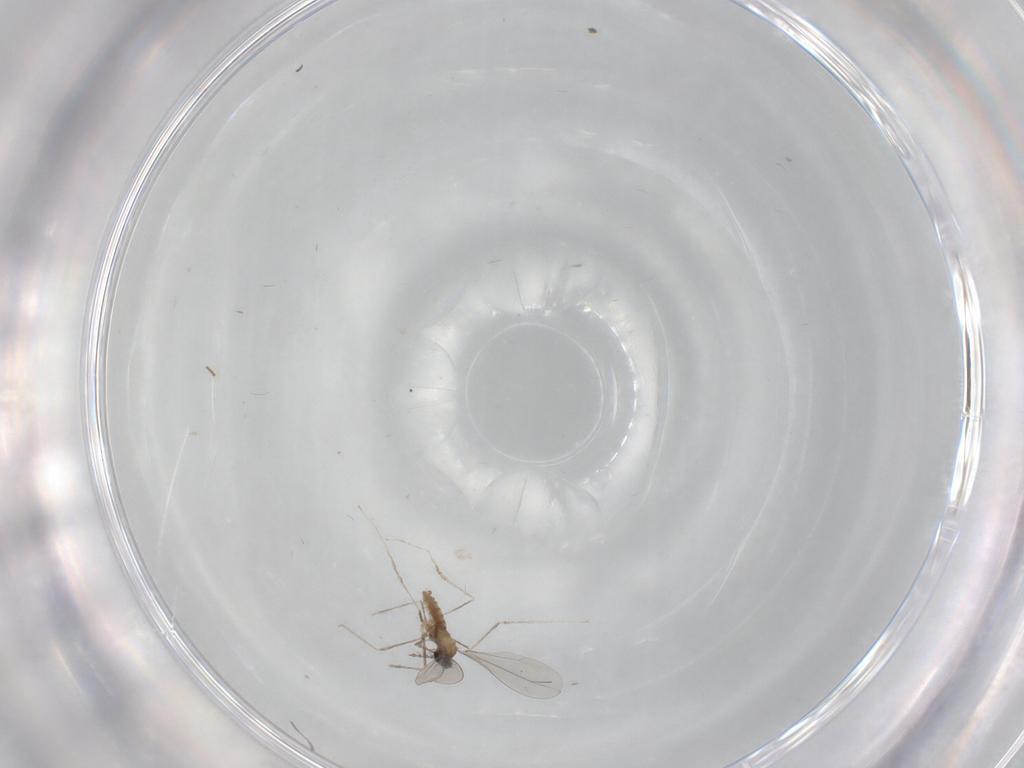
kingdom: Animalia
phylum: Arthropoda
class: Insecta
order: Diptera
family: Cecidomyiidae
